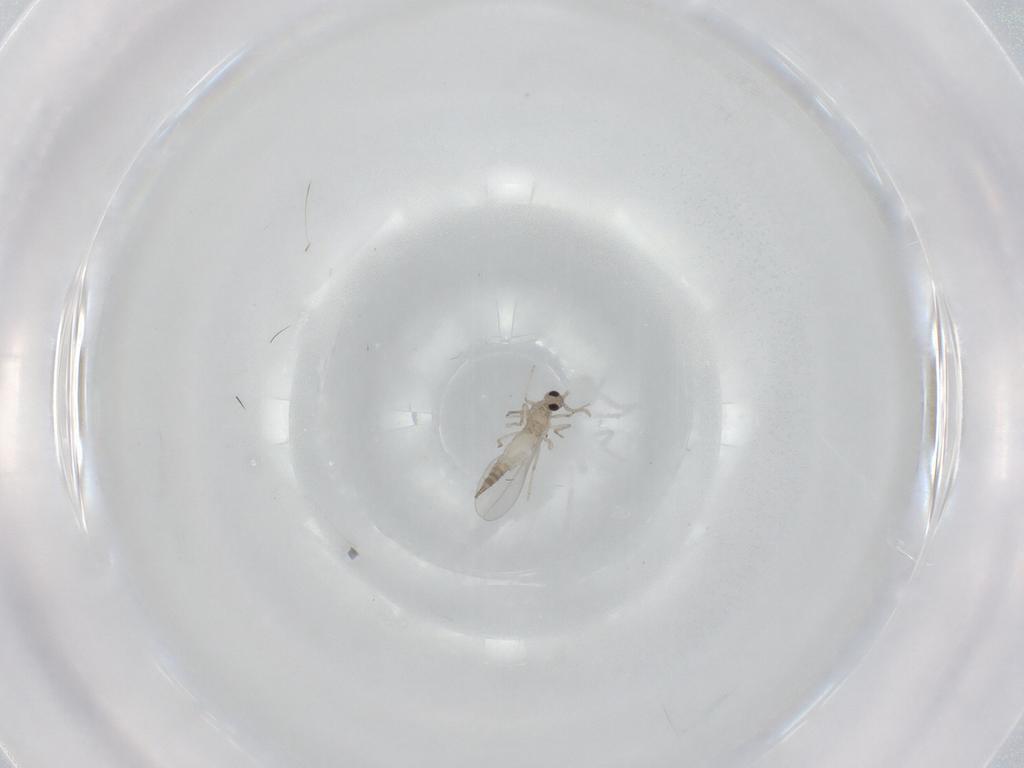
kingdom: Animalia
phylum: Arthropoda
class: Insecta
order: Diptera
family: Cecidomyiidae
